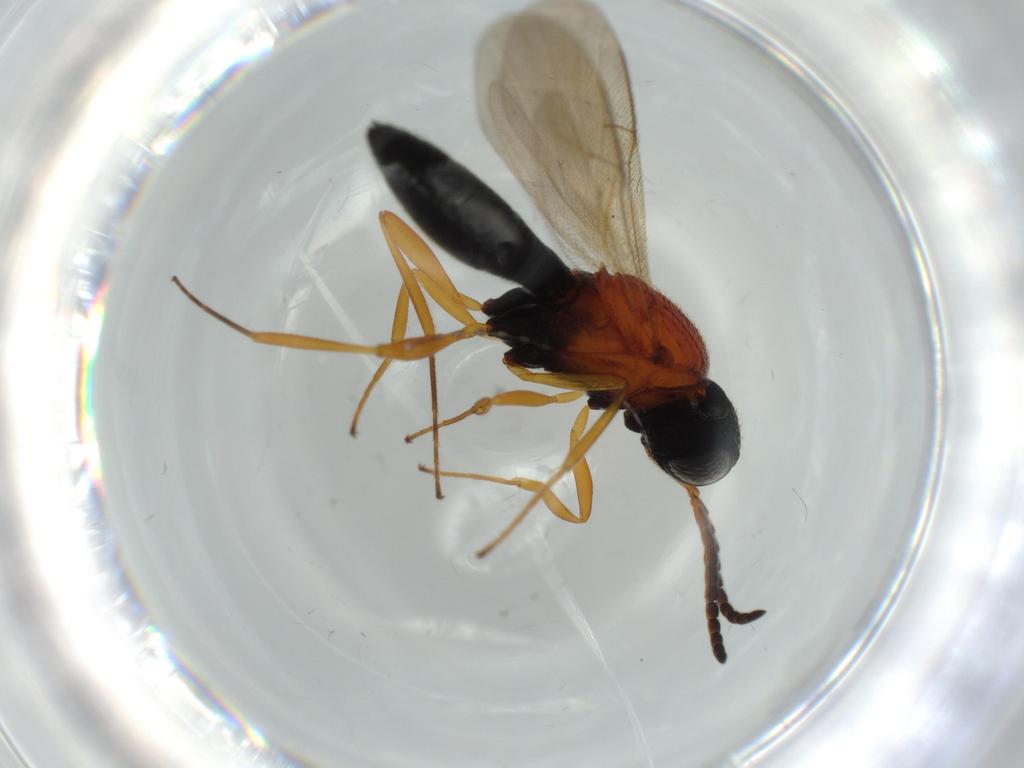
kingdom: Animalia
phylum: Arthropoda
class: Insecta
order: Hymenoptera
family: Scelionidae
